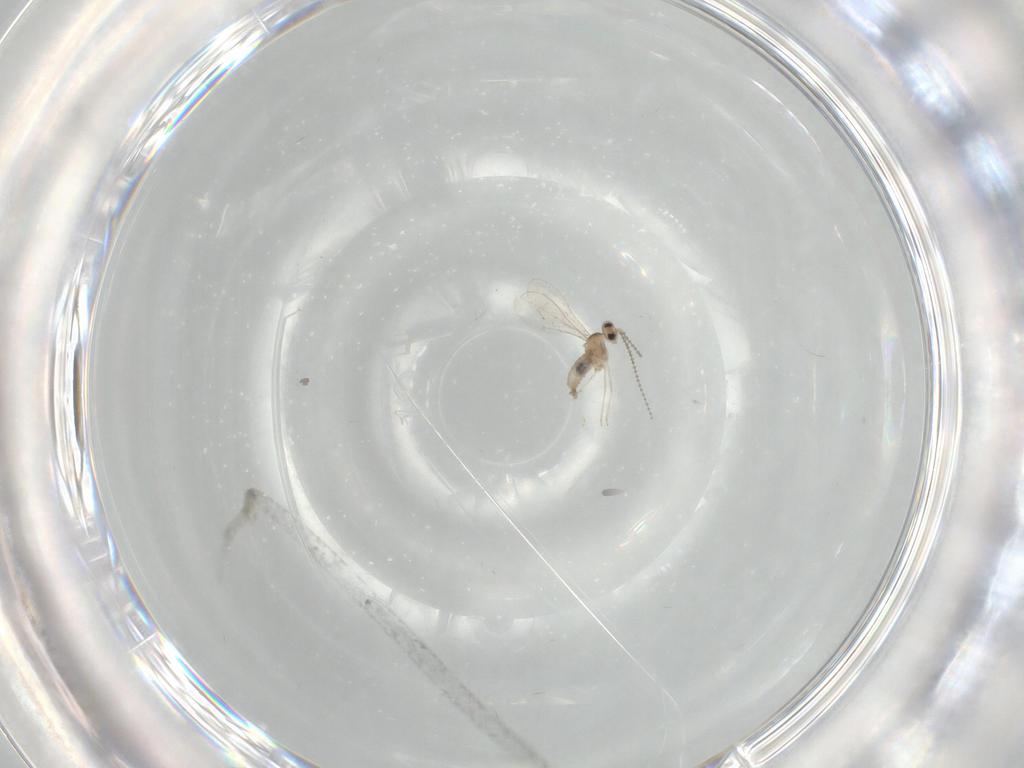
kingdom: Animalia
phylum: Arthropoda
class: Insecta
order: Diptera
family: Cecidomyiidae
